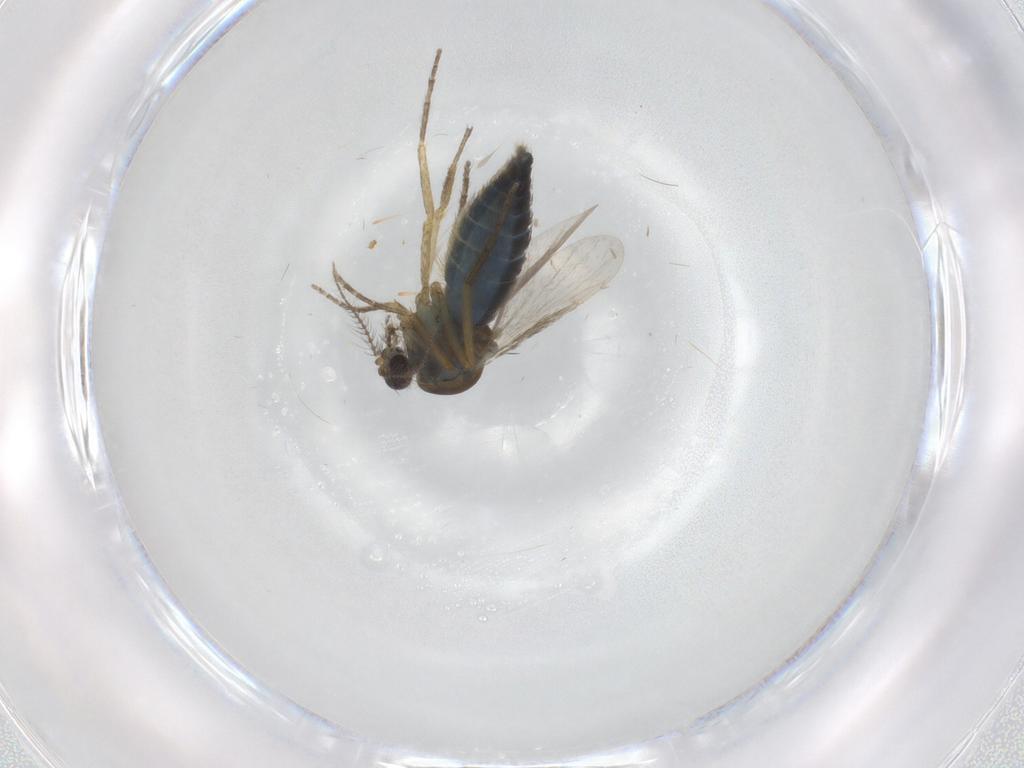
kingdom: Animalia
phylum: Arthropoda
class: Insecta
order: Diptera
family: Ceratopogonidae
